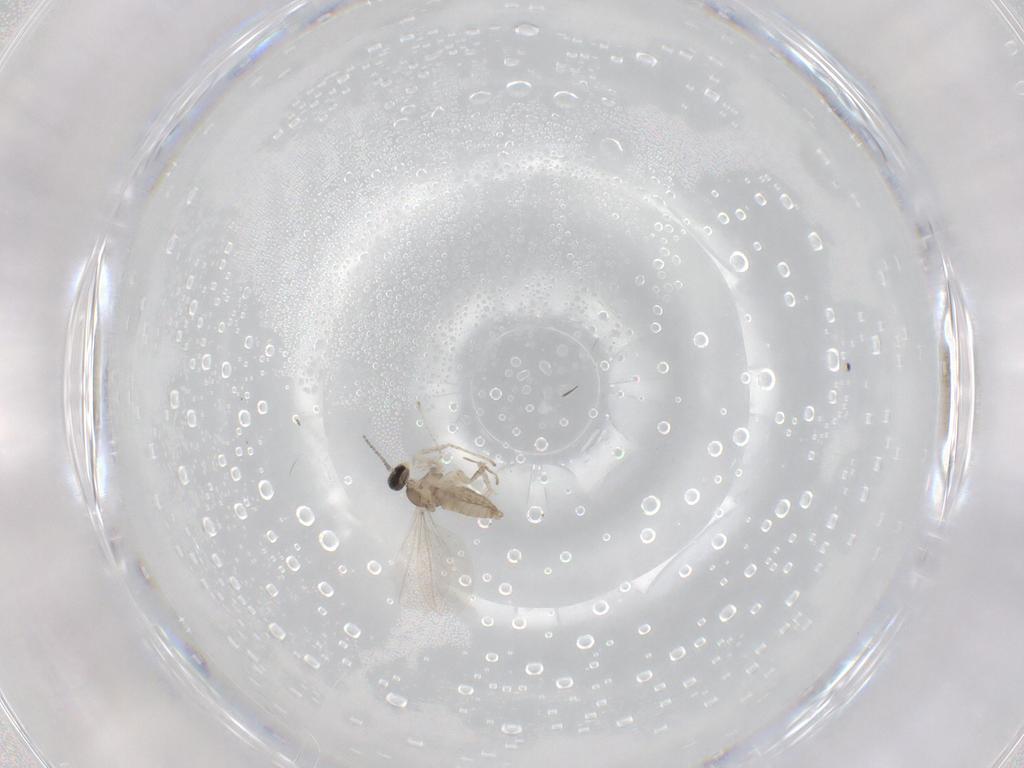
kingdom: Animalia
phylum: Arthropoda
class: Insecta
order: Diptera
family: Cecidomyiidae
